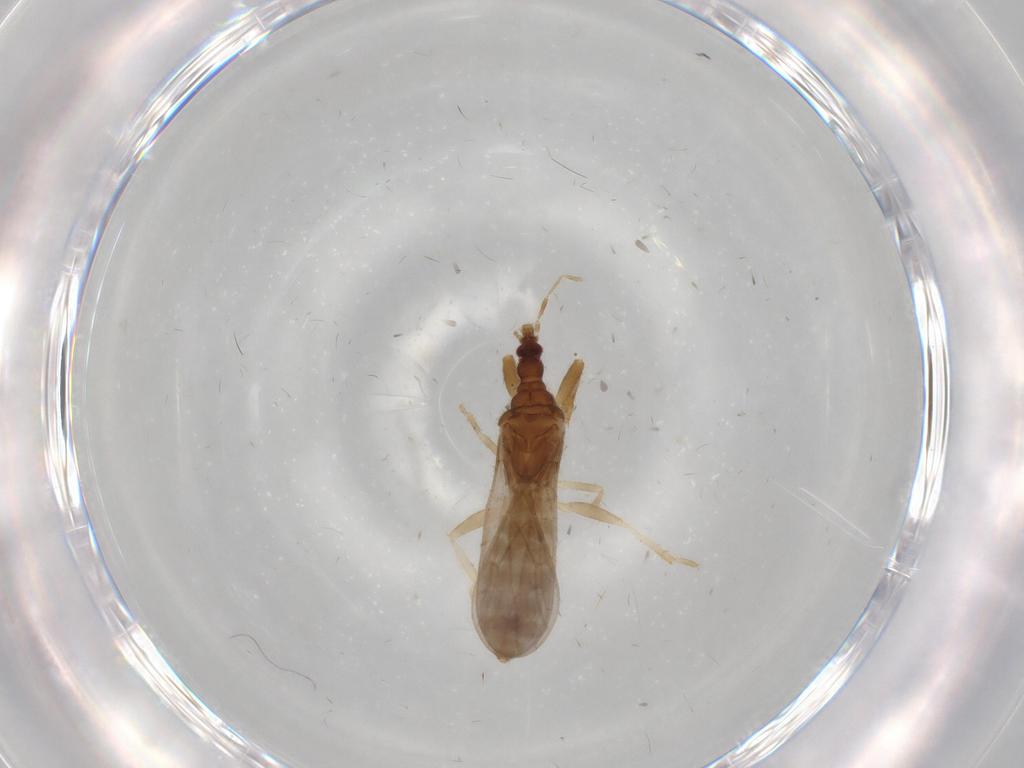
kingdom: Animalia
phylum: Arthropoda
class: Insecta
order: Hemiptera
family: Enicocephalidae
